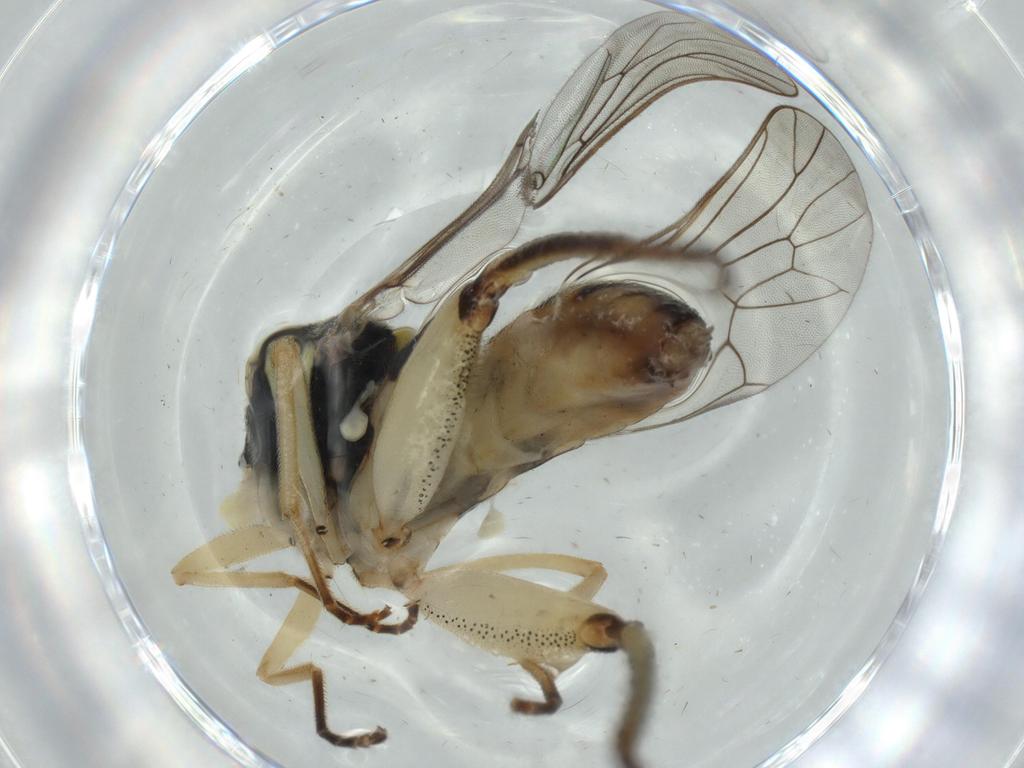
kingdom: Animalia
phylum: Arthropoda
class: Insecta
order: Diptera
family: Xylomyidae
